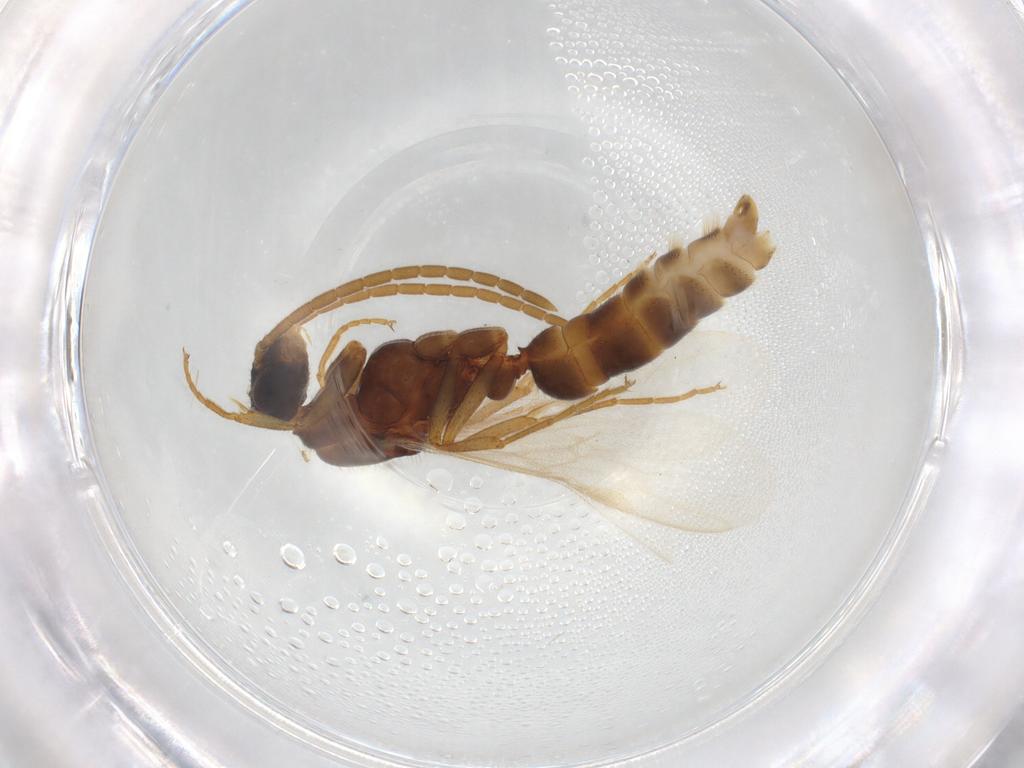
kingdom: Animalia
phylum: Arthropoda
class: Insecta
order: Hymenoptera
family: Formicidae
